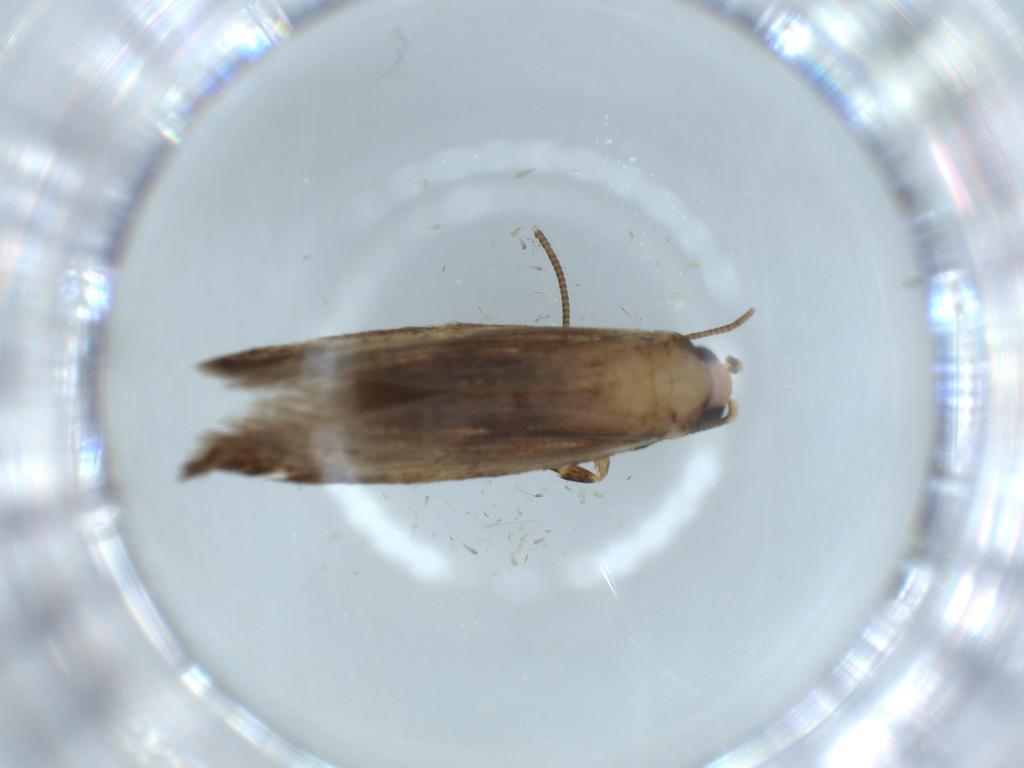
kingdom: Animalia
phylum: Arthropoda
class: Insecta
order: Lepidoptera
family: Tineidae
